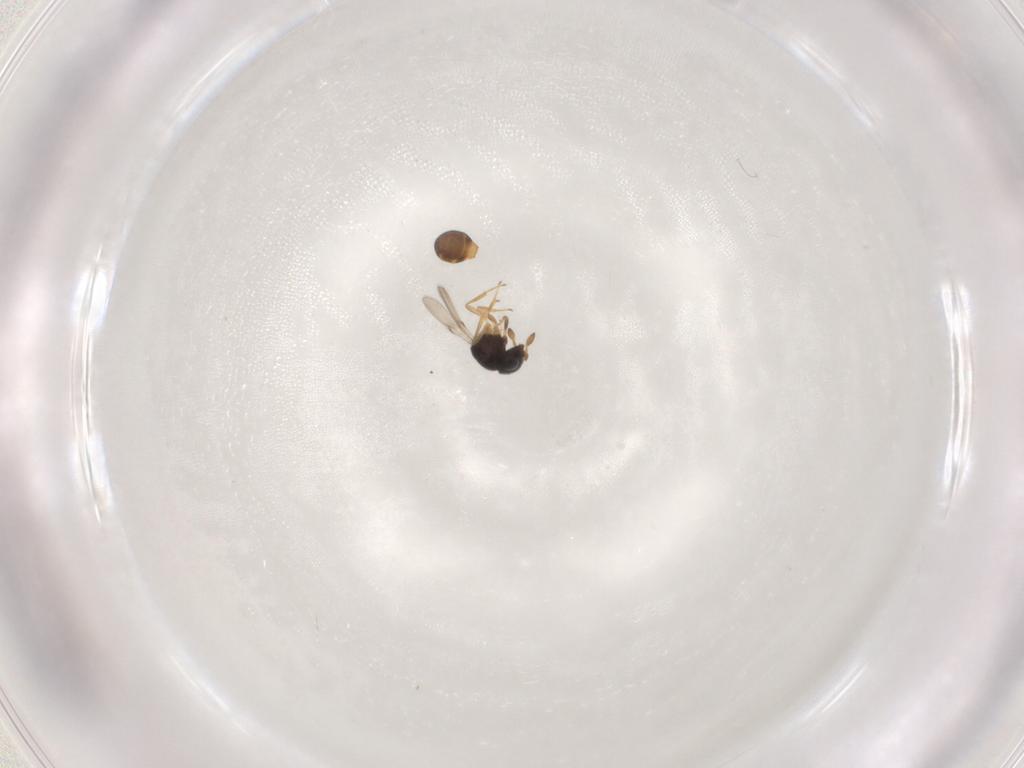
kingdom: Animalia
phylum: Arthropoda
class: Insecta
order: Hymenoptera
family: Scelionidae
